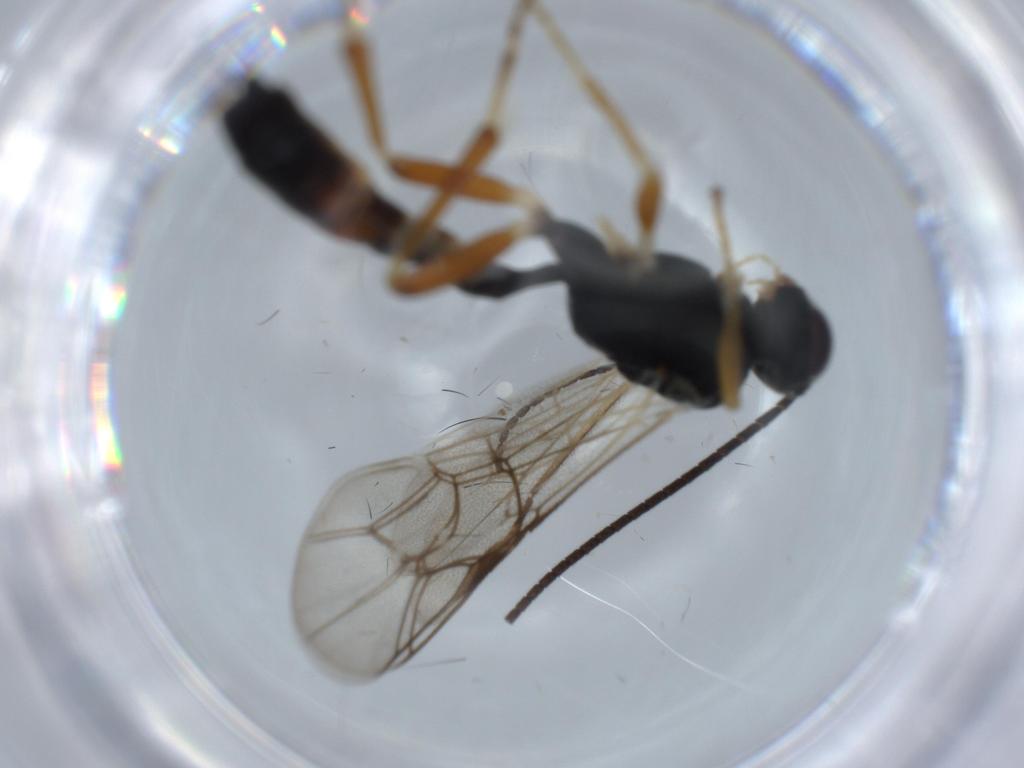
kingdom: Animalia
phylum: Arthropoda
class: Insecta
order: Hymenoptera
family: Ichneumonidae
